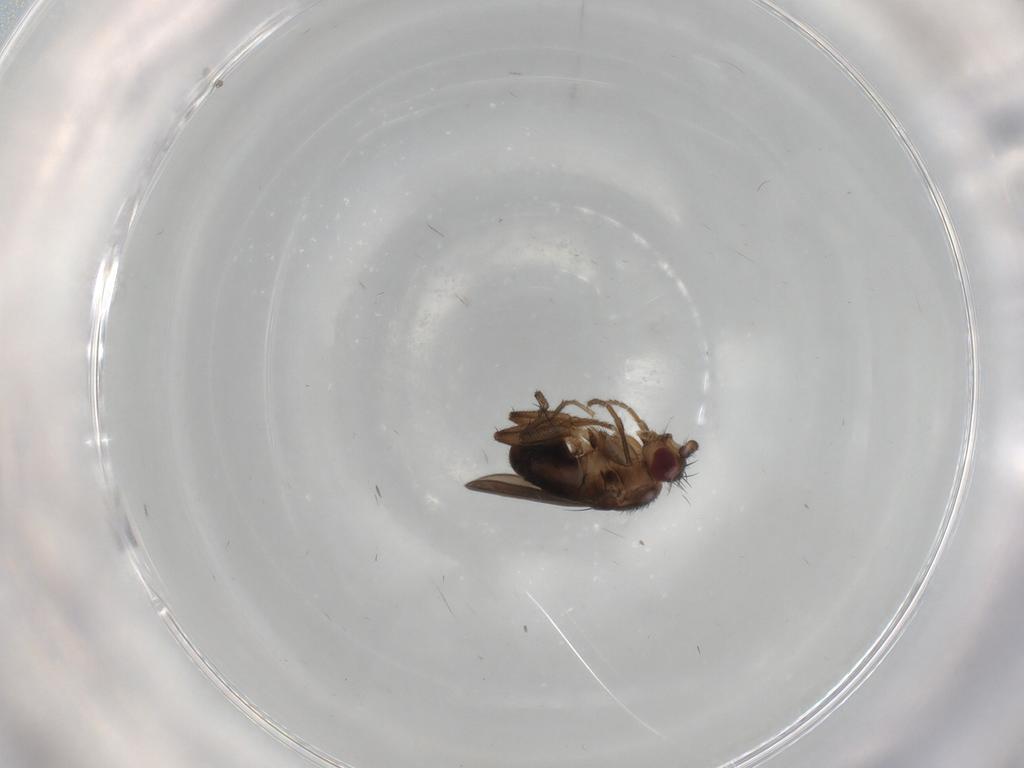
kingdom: Animalia
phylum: Arthropoda
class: Insecta
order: Diptera
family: Sphaeroceridae
